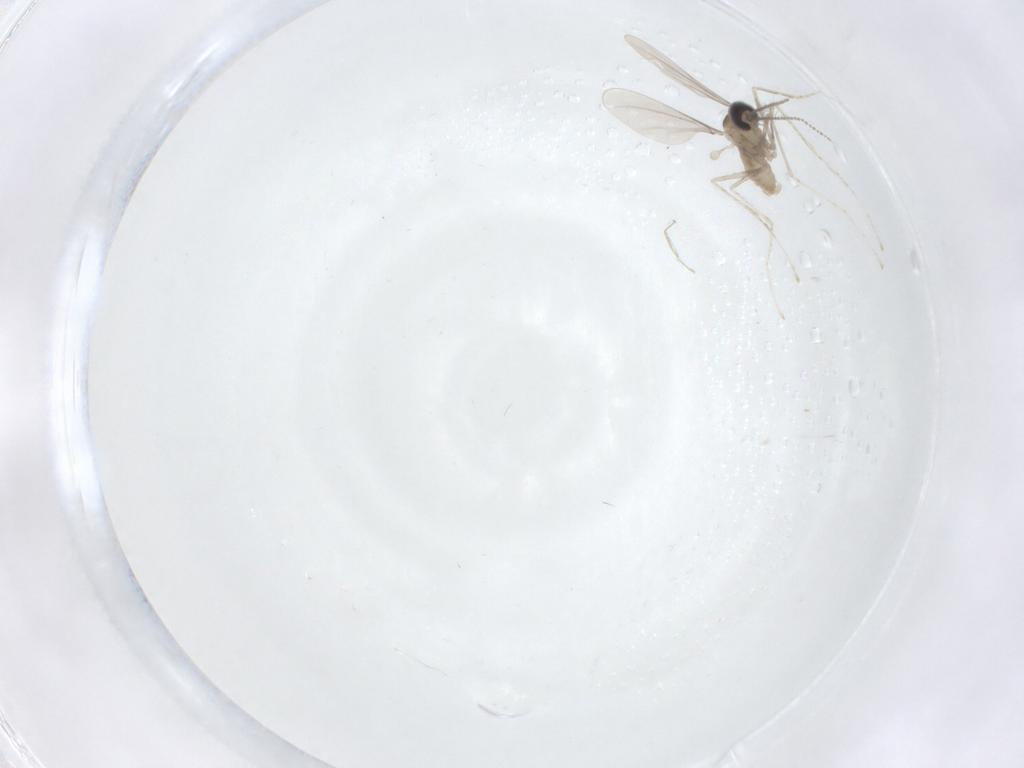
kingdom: Animalia
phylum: Arthropoda
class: Insecta
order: Diptera
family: Cecidomyiidae
